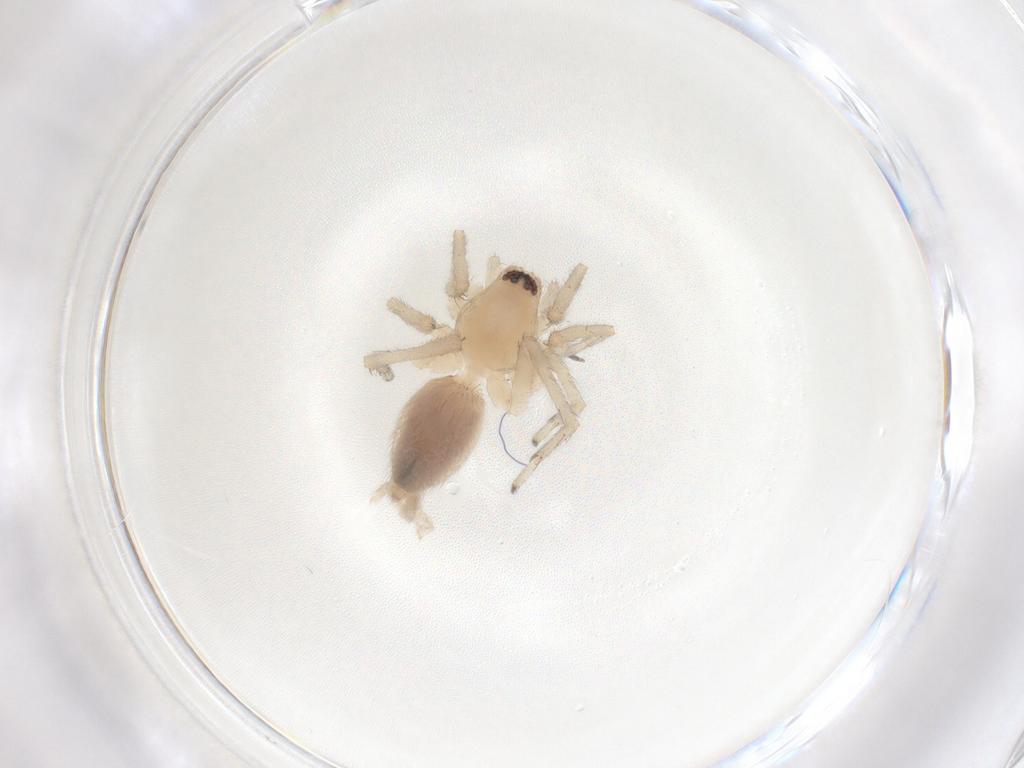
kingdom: Animalia
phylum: Arthropoda
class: Arachnida
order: Araneae
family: Clubionidae
